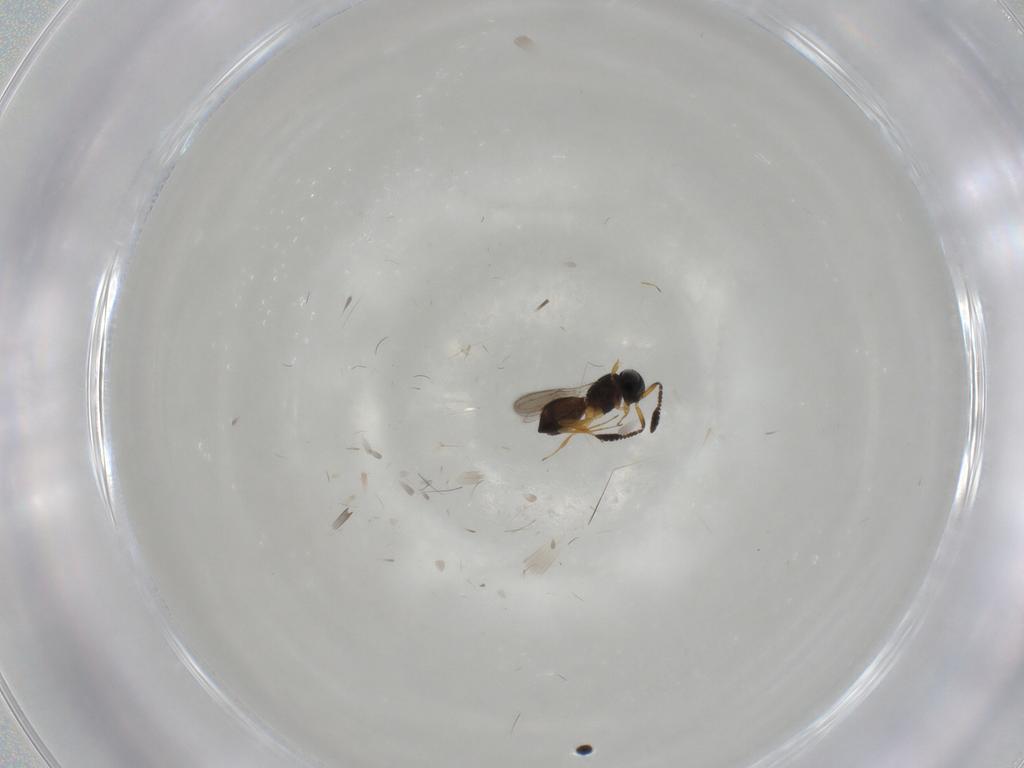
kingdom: Animalia
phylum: Arthropoda
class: Insecta
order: Hymenoptera
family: Scelionidae
